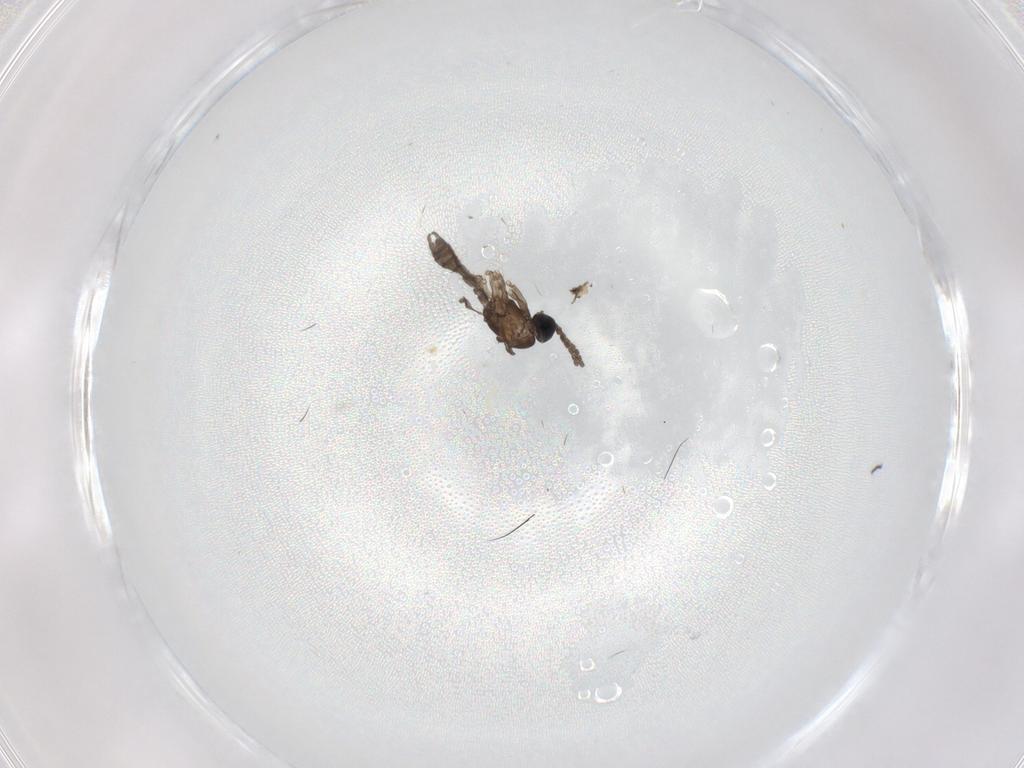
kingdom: Animalia
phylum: Arthropoda
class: Insecta
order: Diptera
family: Sciaridae
